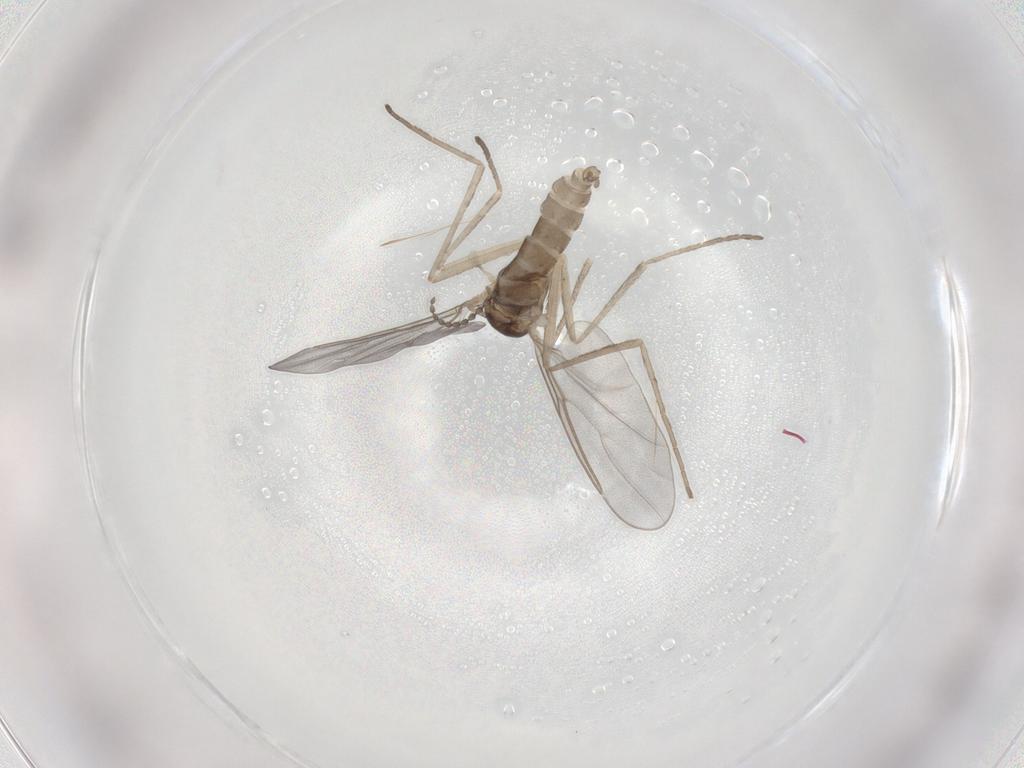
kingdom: Animalia
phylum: Arthropoda
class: Insecta
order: Diptera
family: Cecidomyiidae
